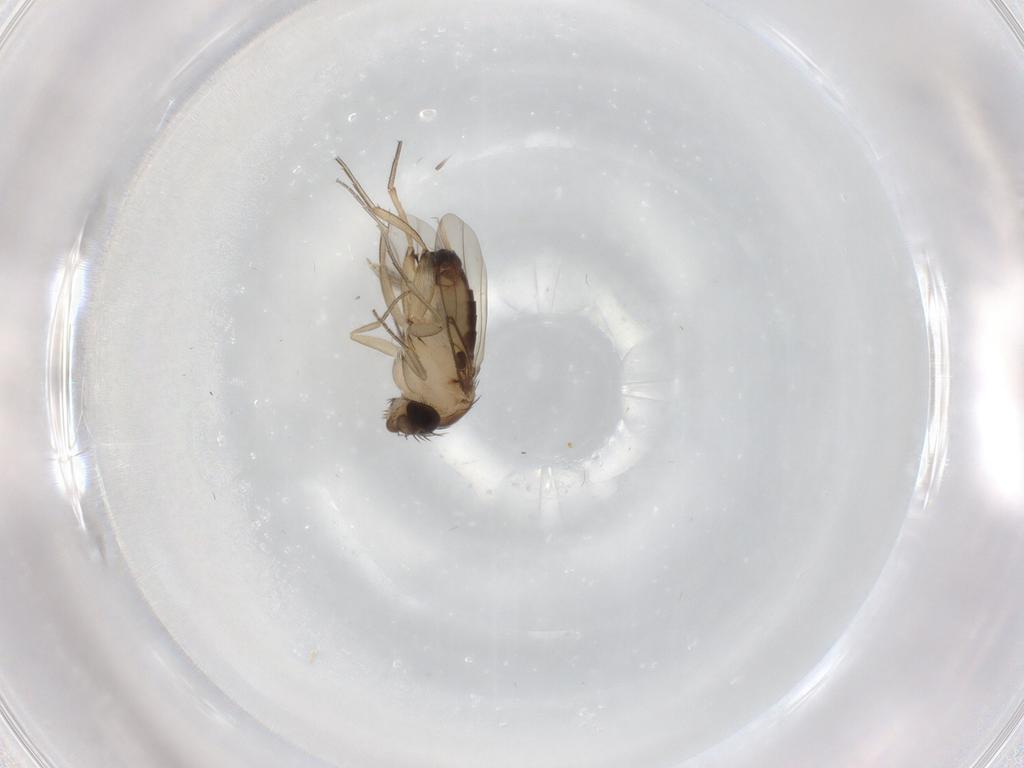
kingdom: Animalia
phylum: Arthropoda
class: Insecta
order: Diptera
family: Phoridae
